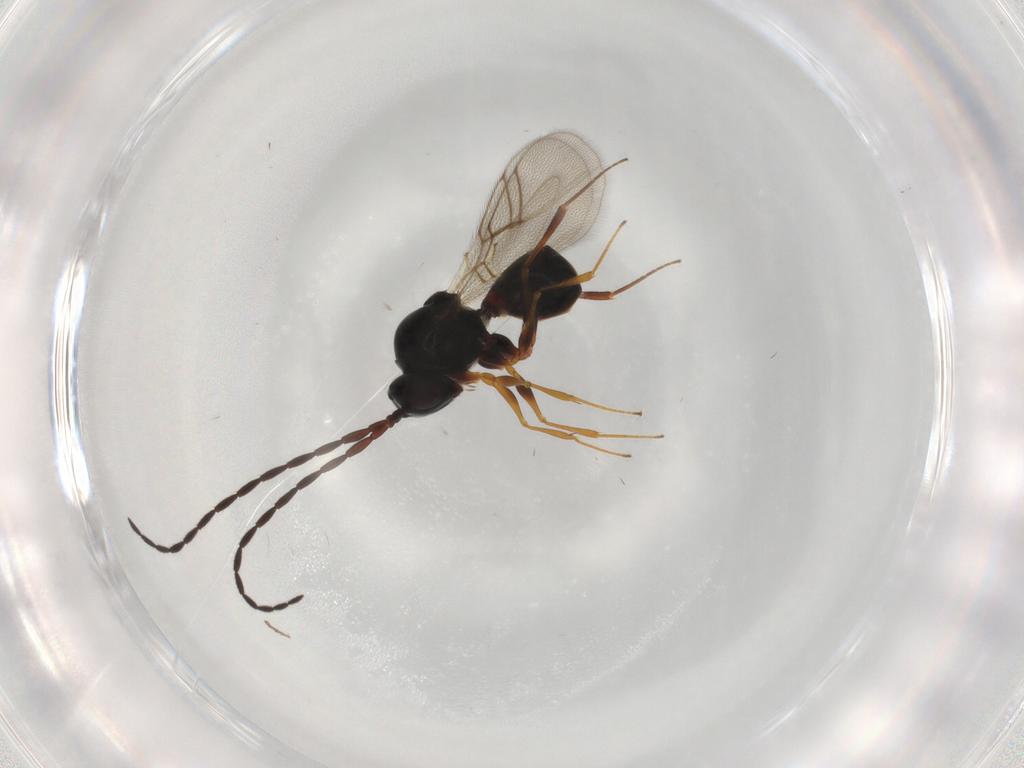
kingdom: Animalia
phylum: Arthropoda
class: Insecta
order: Hymenoptera
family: Figitidae
